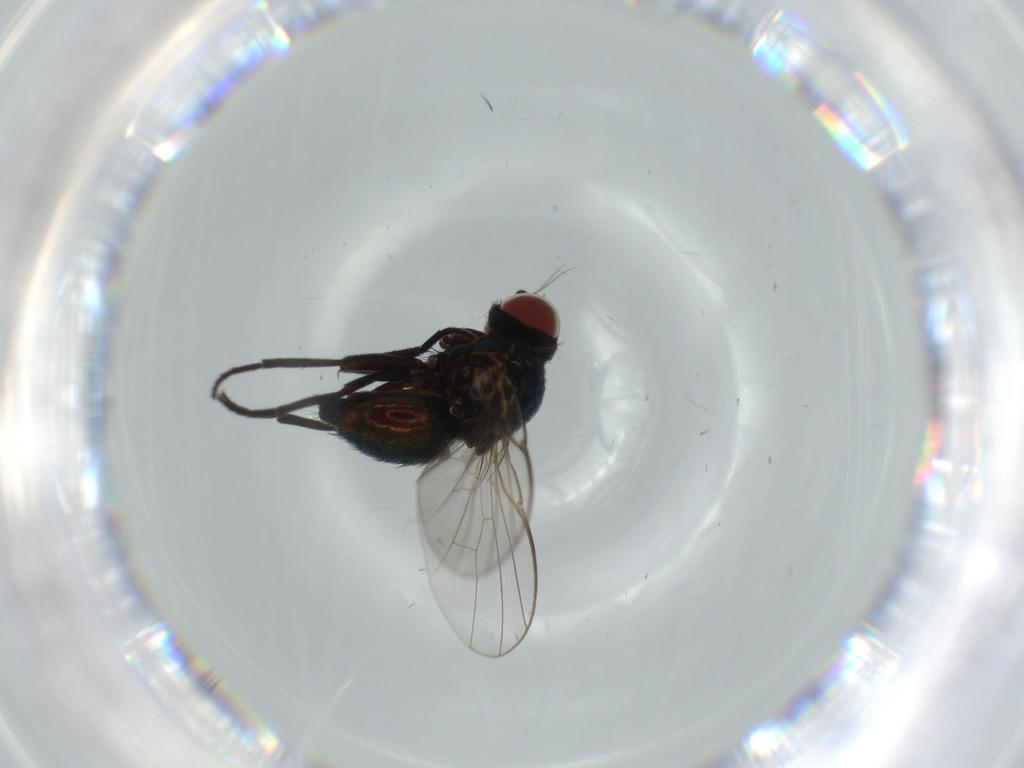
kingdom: Animalia
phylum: Arthropoda
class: Insecta
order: Diptera
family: Agromyzidae
